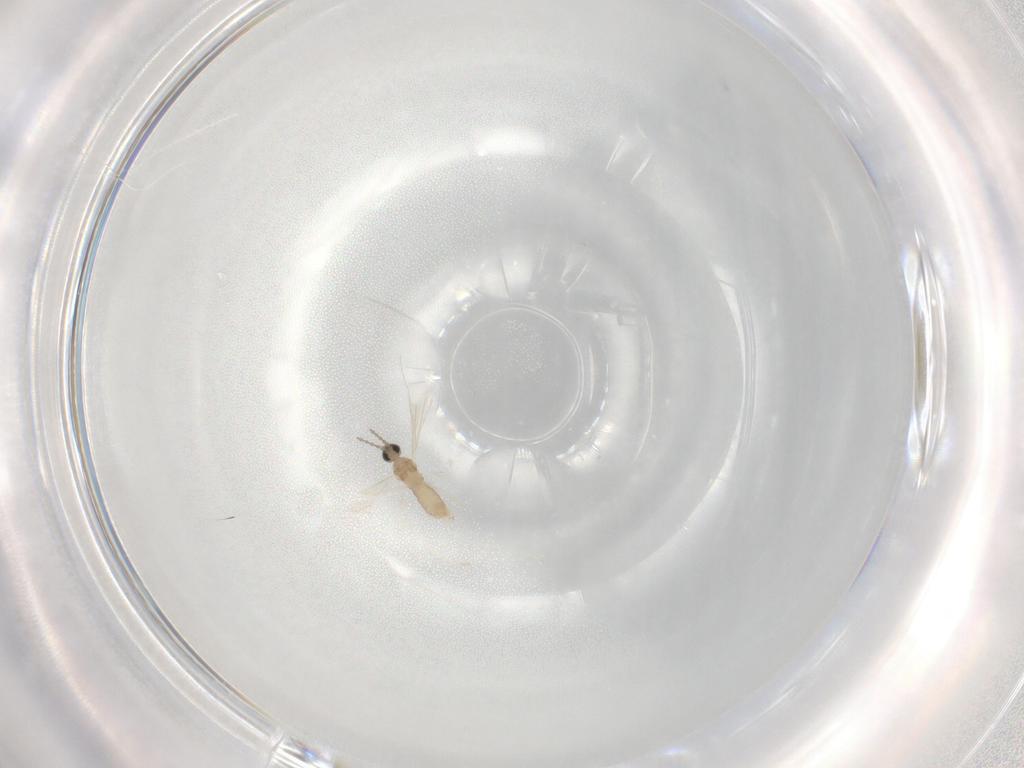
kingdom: Animalia
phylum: Arthropoda
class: Insecta
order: Diptera
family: Cecidomyiidae
